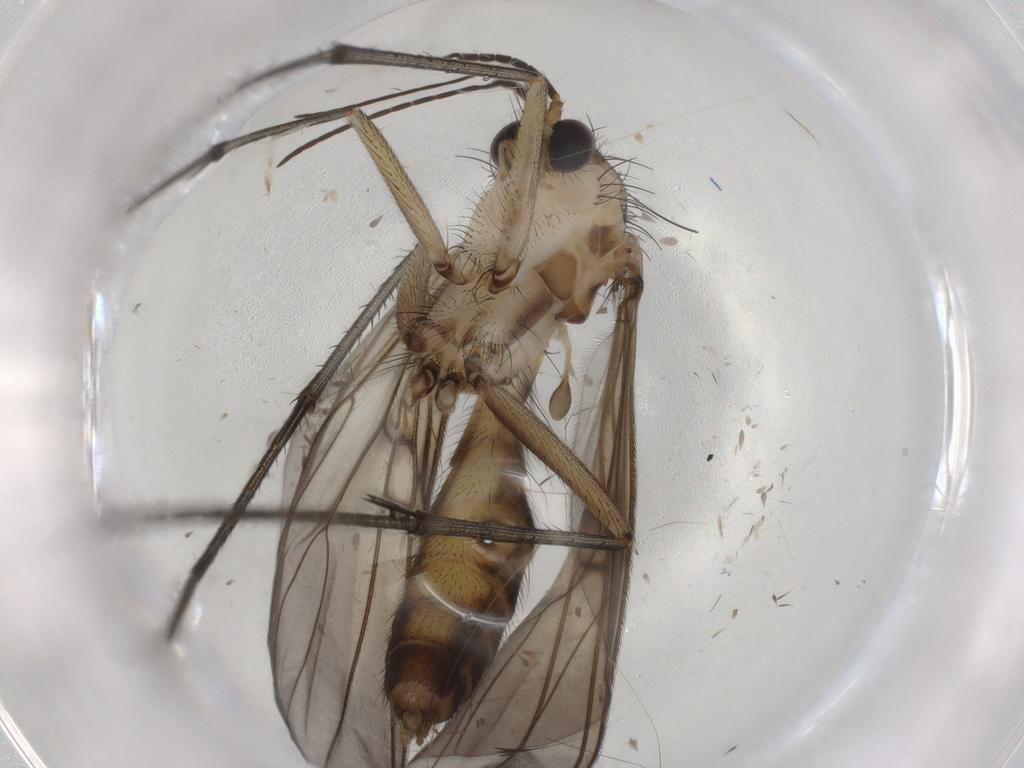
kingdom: Animalia
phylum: Arthropoda
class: Insecta
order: Diptera
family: Mycetophilidae
